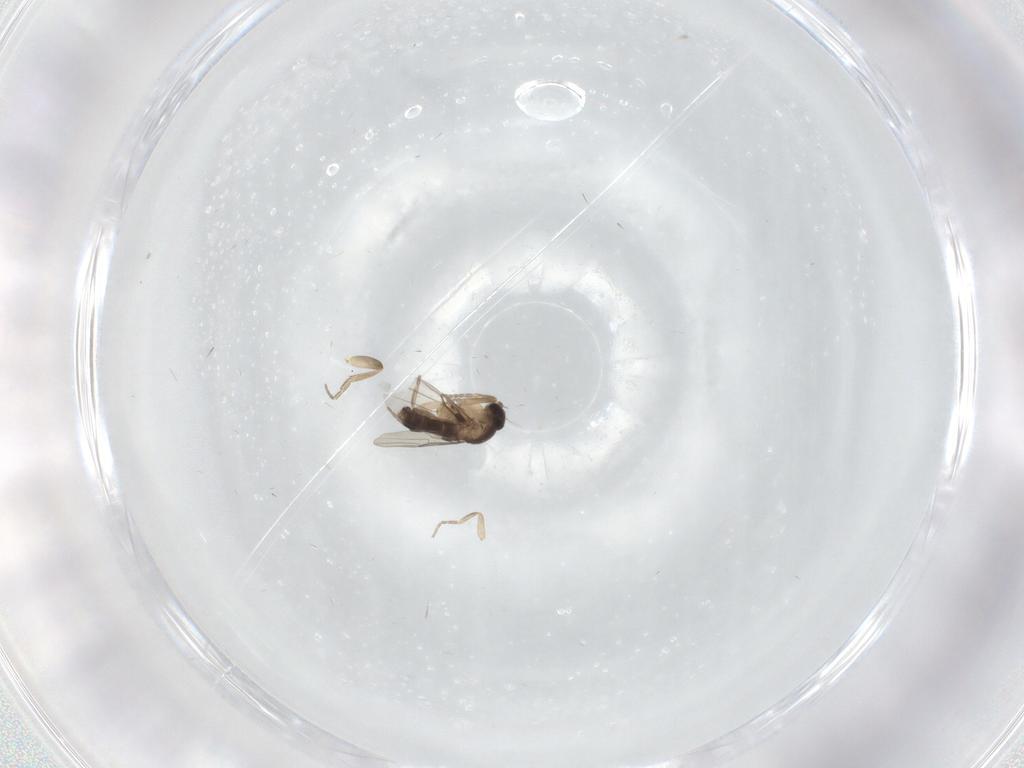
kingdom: Animalia
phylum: Arthropoda
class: Insecta
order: Diptera
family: Phoridae
